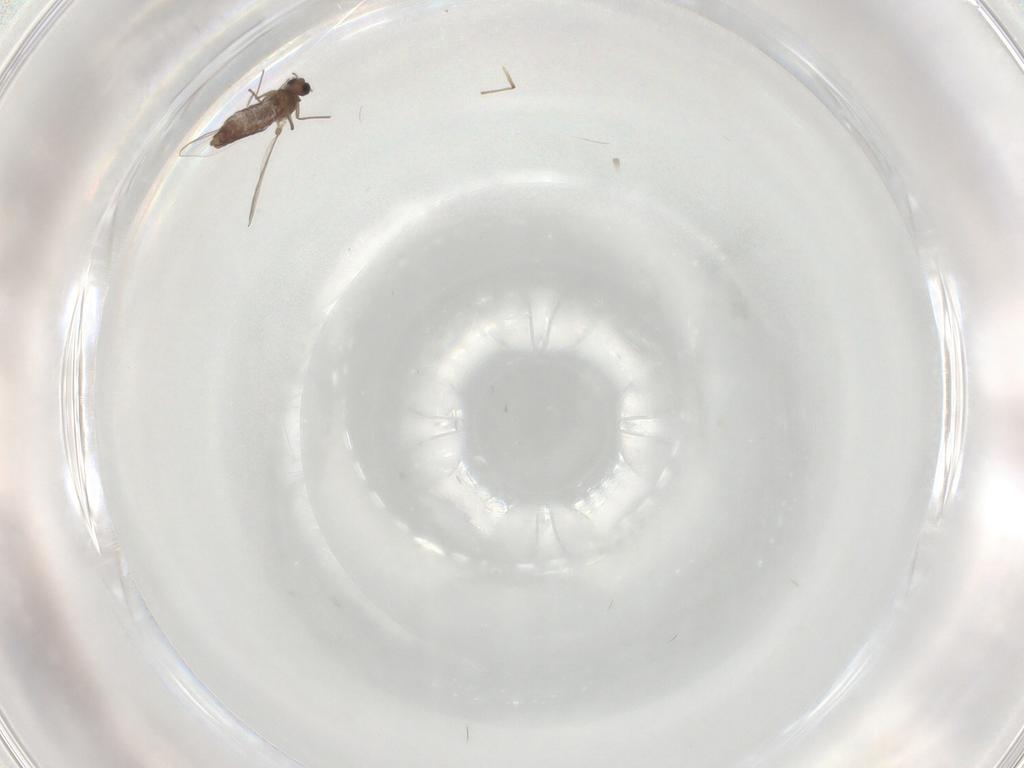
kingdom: Animalia
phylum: Arthropoda
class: Insecta
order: Diptera
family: Chironomidae
